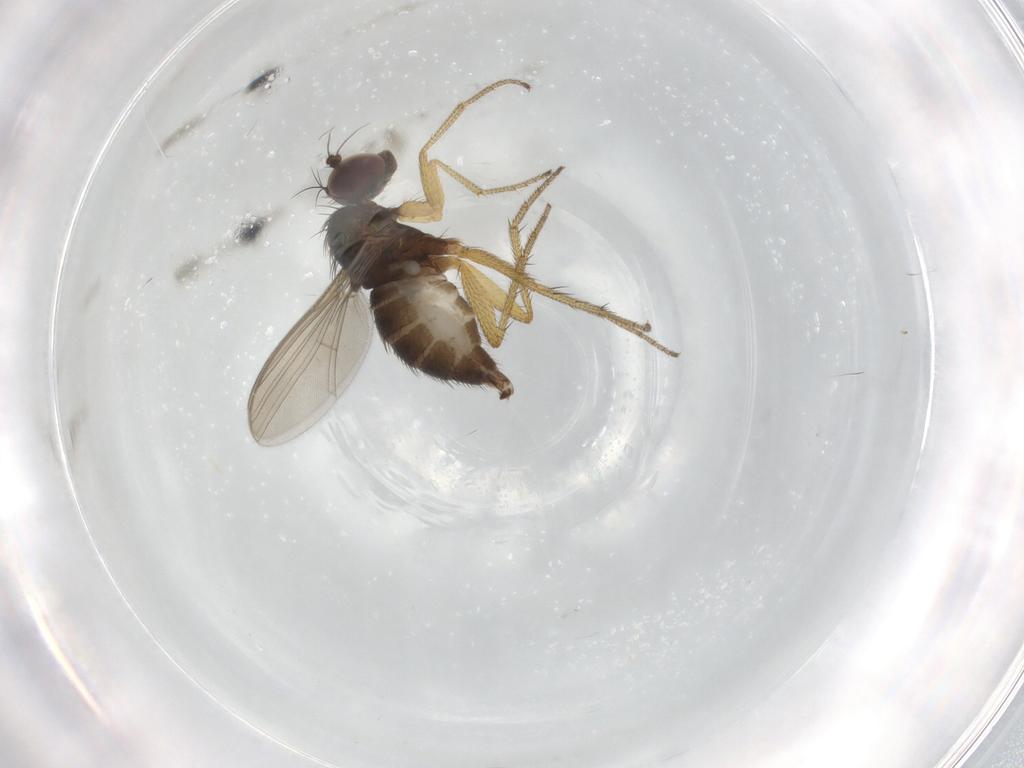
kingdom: Animalia
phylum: Arthropoda
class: Insecta
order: Diptera
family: Dolichopodidae
